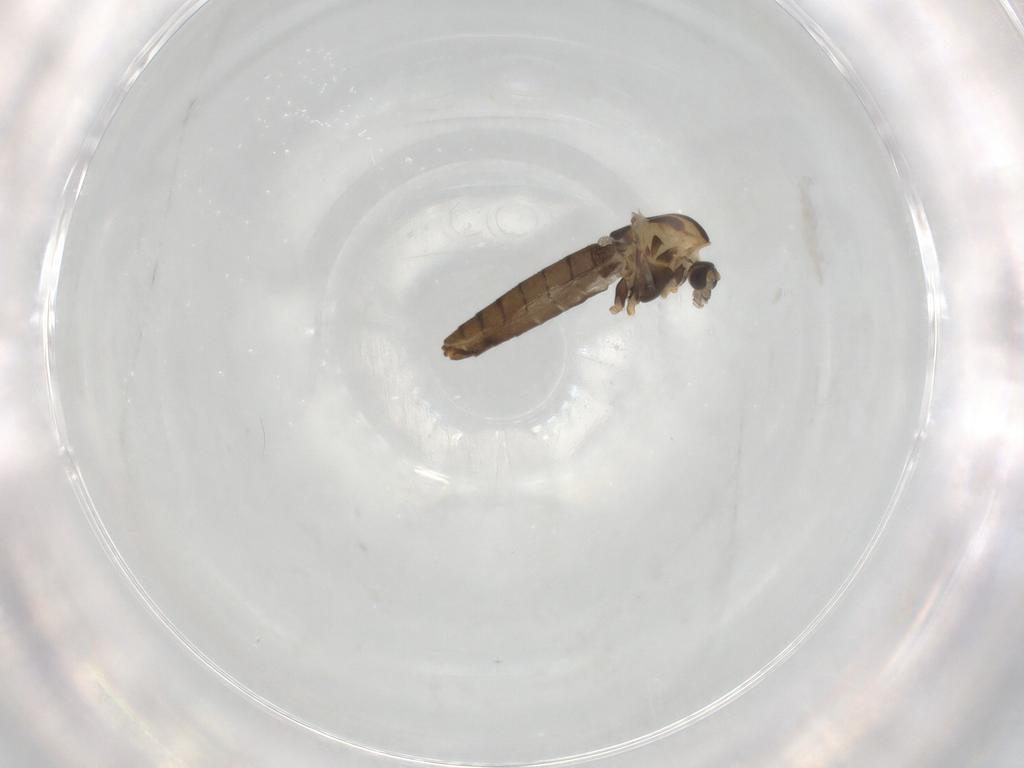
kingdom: Animalia
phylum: Arthropoda
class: Insecta
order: Diptera
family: Chironomidae
